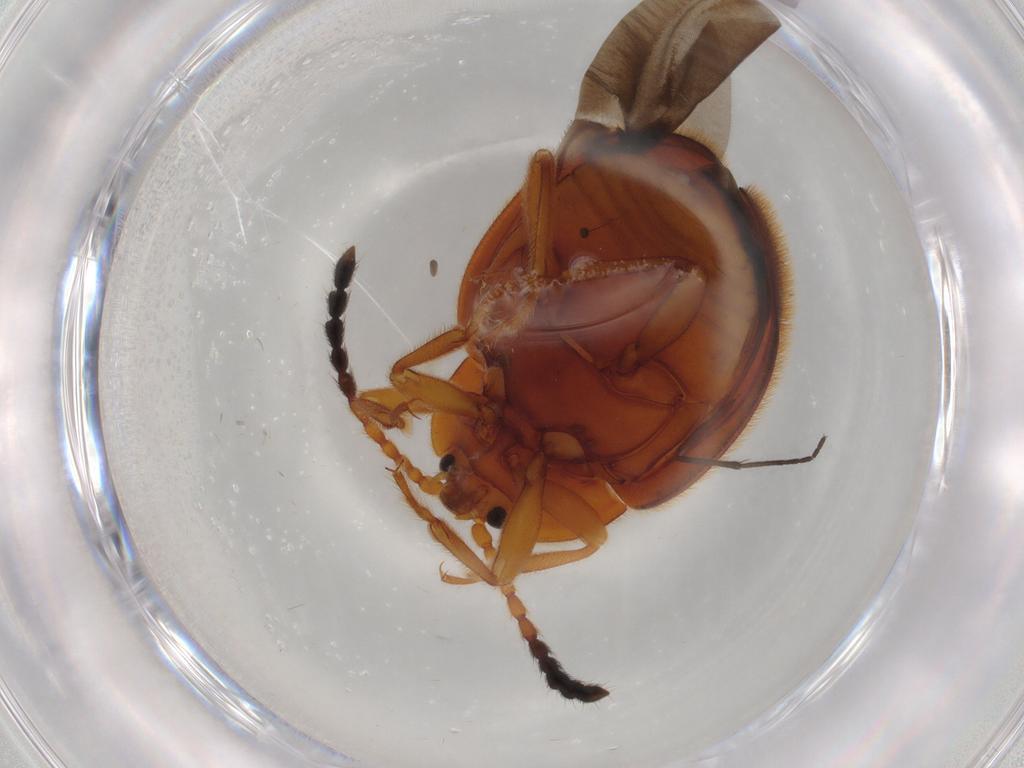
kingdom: Animalia
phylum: Arthropoda
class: Insecta
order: Coleoptera
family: Endomychidae
